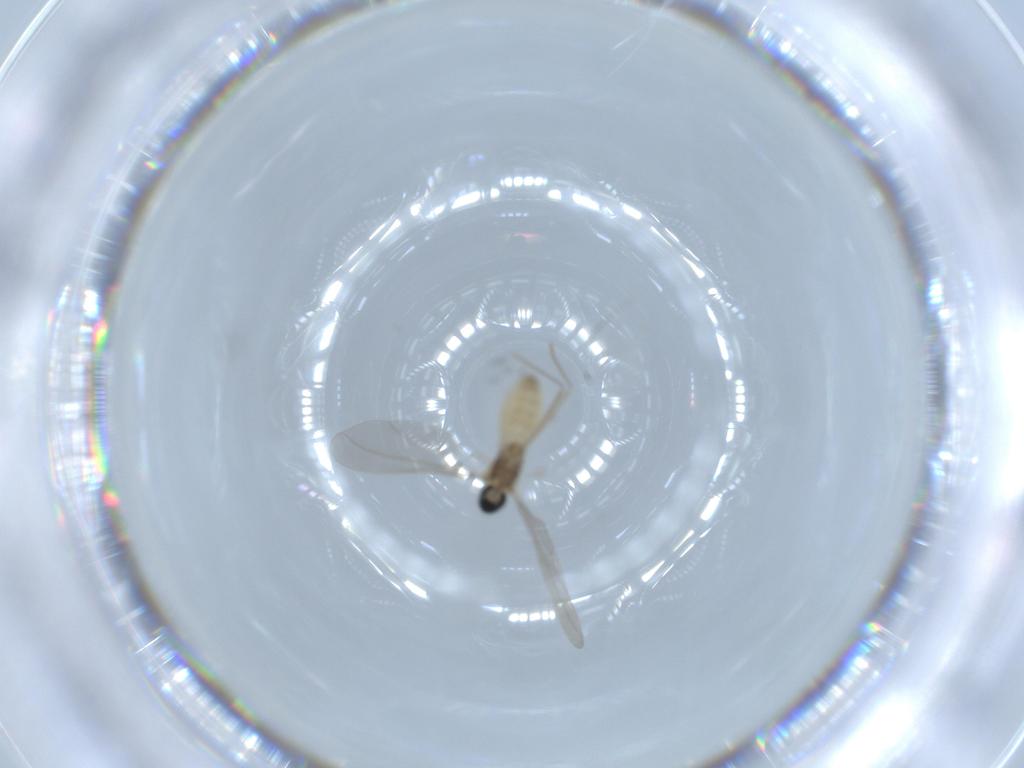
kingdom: Animalia
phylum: Arthropoda
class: Insecta
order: Diptera
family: Cecidomyiidae
